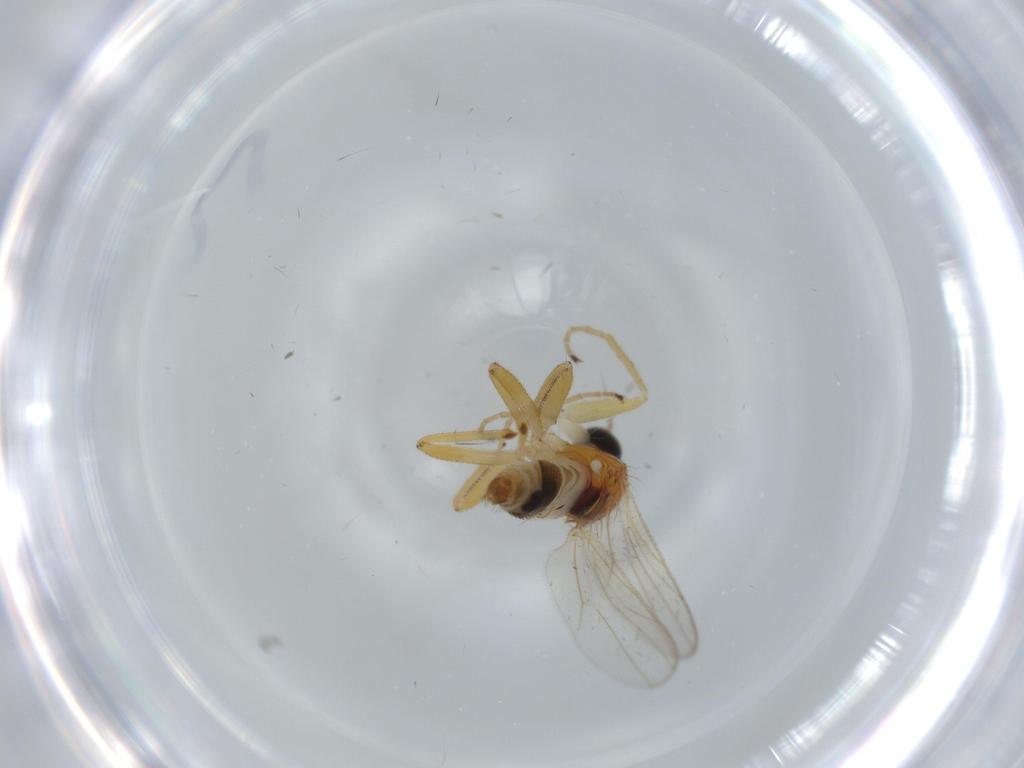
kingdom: Animalia
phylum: Arthropoda
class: Insecta
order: Diptera
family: Hybotidae
